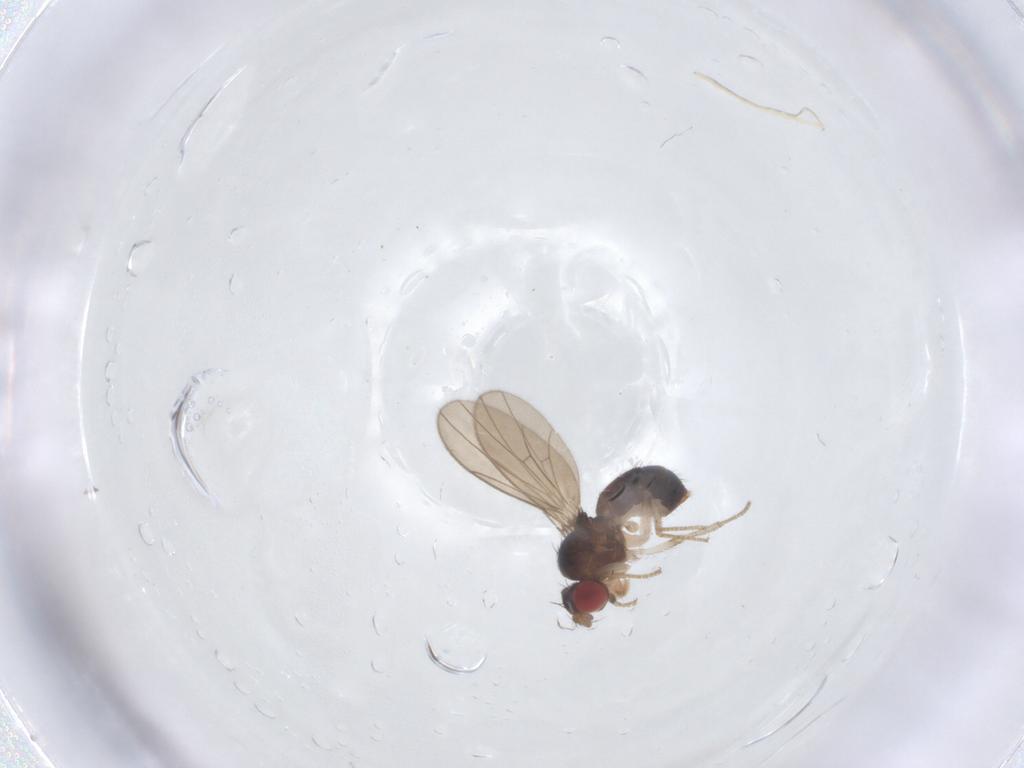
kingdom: Animalia
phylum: Arthropoda
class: Insecta
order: Diptera
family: Drosophilidae
